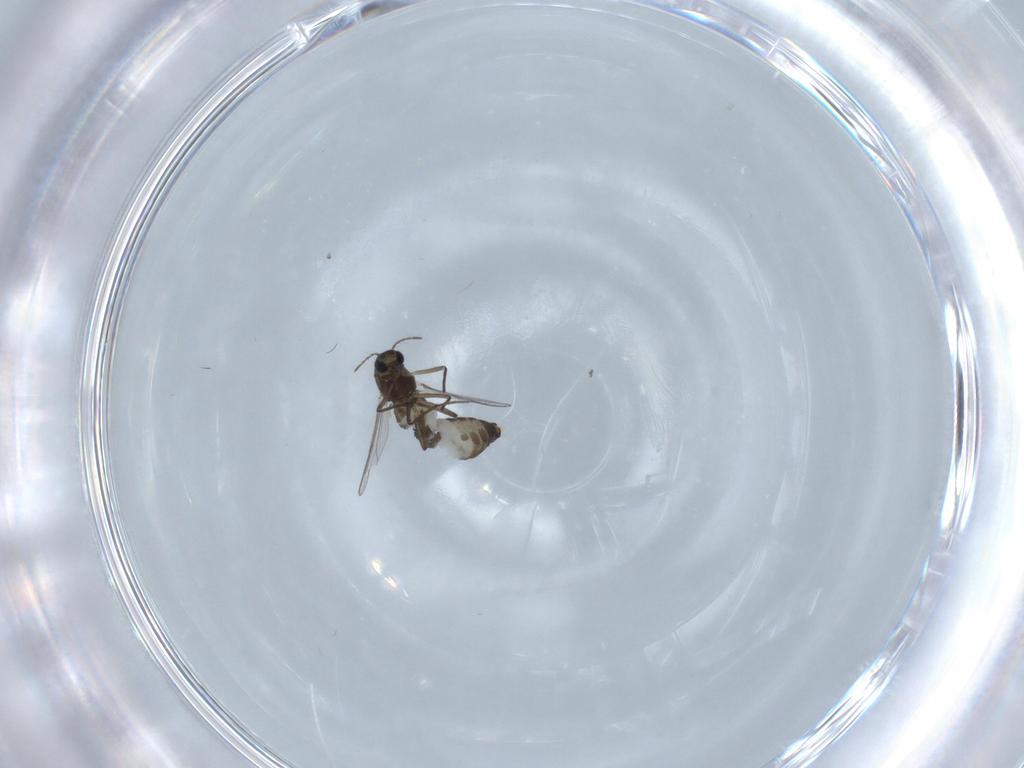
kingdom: Animalia
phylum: Arthropoda
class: Insecta
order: Diptera
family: Chironomidae
